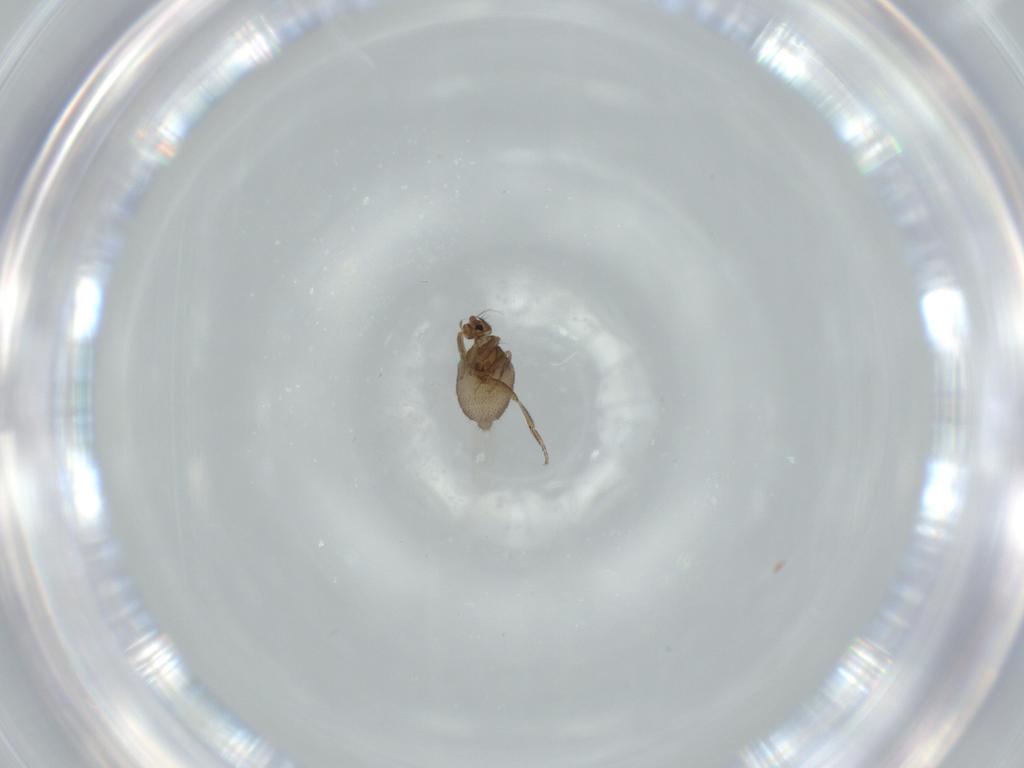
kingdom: Animalia
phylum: Arthropoda
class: Insecta
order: Diptera
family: Phoridae
